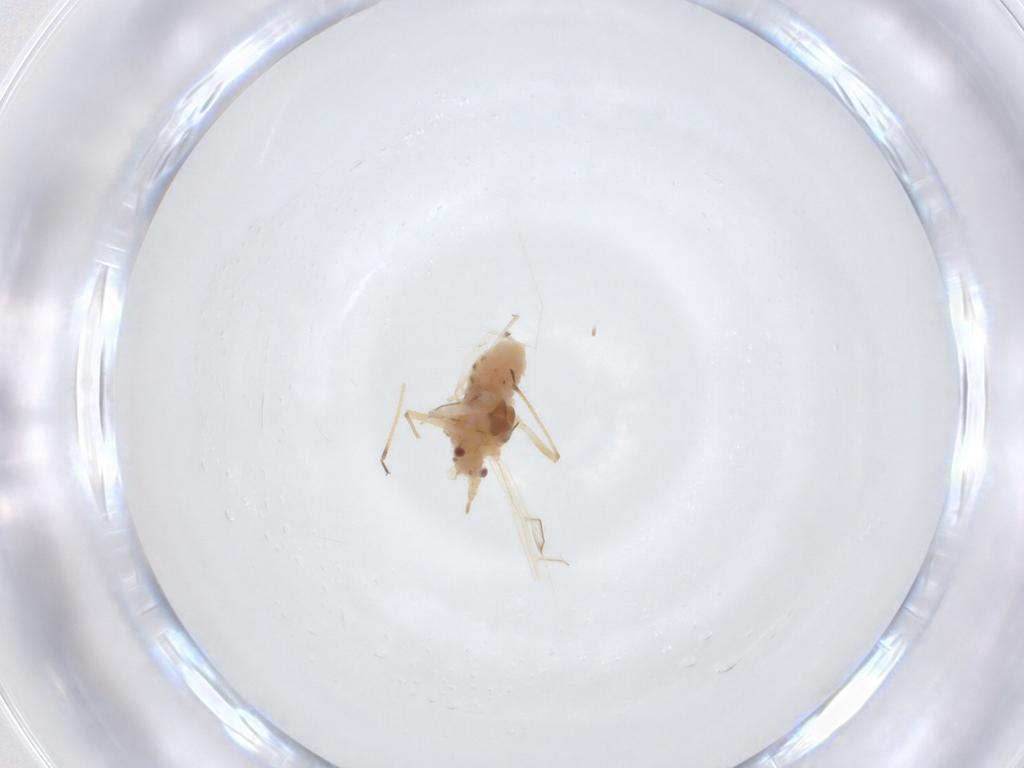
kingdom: Animalia
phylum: Arthropoda
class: Insecta
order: Hemiptera
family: Aphididae
